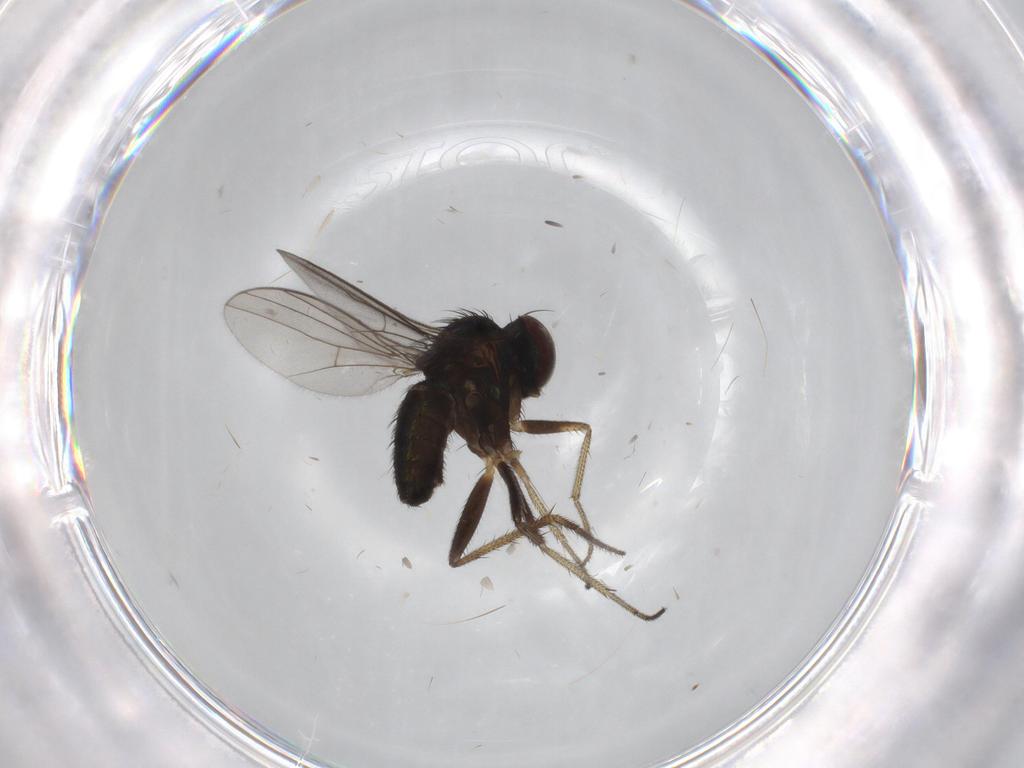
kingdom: Animalia
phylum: Arthropoda
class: Insecta
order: Diptera
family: Dolichopodidae
